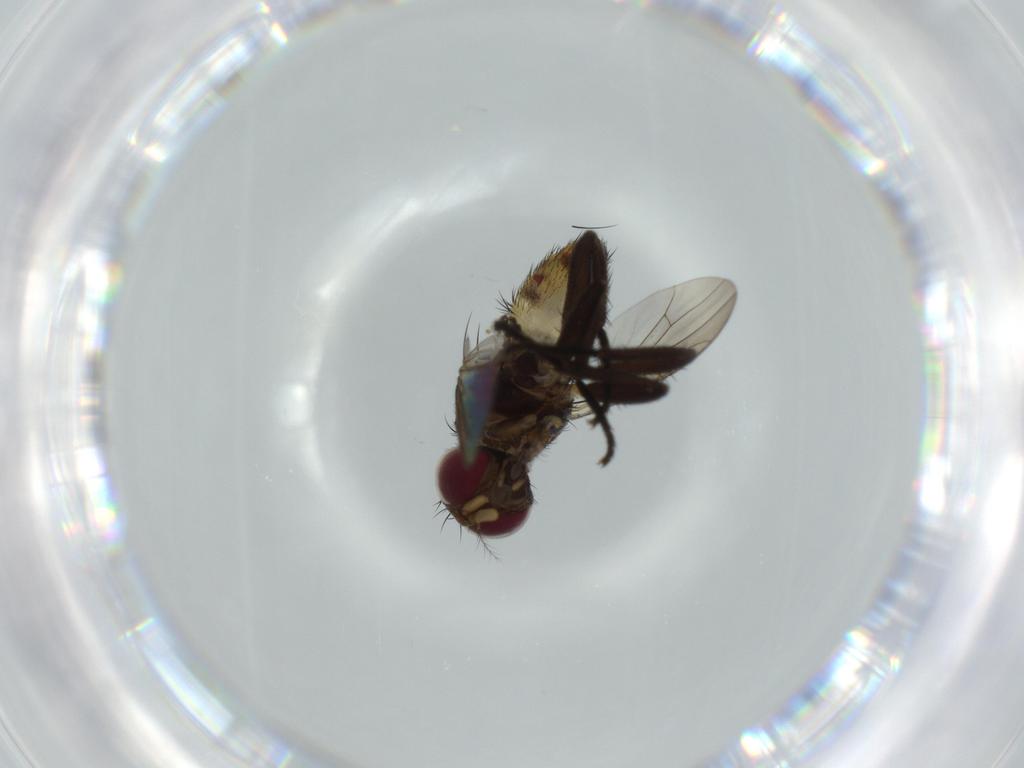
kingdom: Animalia
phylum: Arthropoda
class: Insecta
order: Diptera
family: Anthomyiidae
